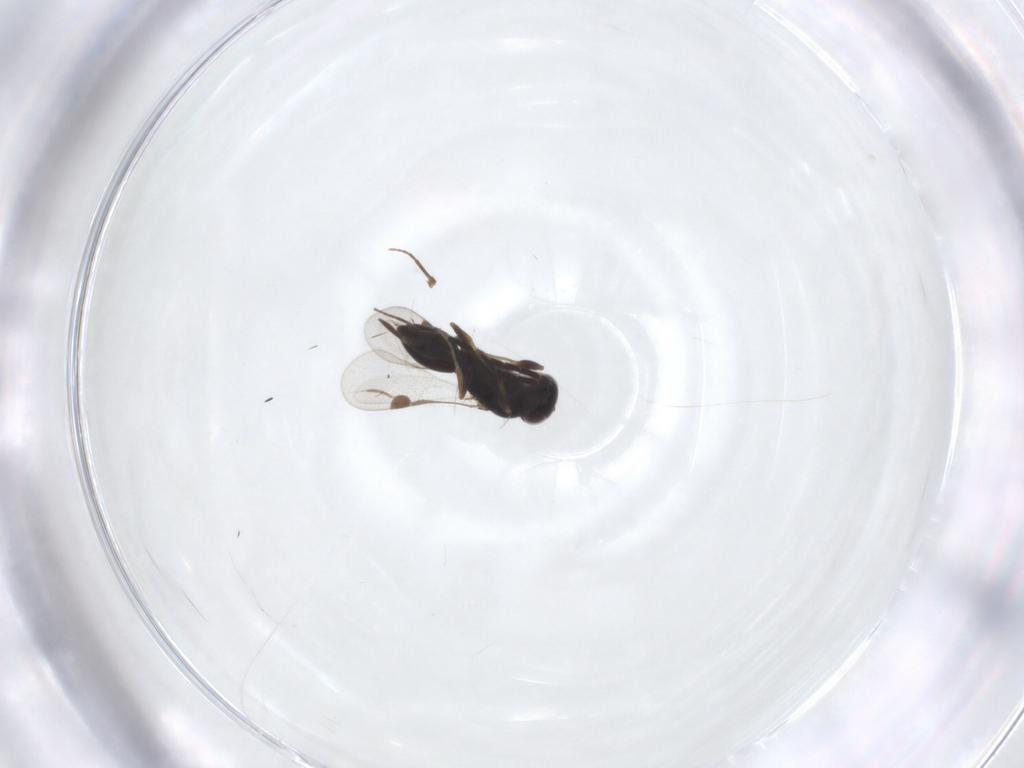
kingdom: Animalia
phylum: Arthropoda
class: Insecta
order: Hymenoptera
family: Megaspilidae
